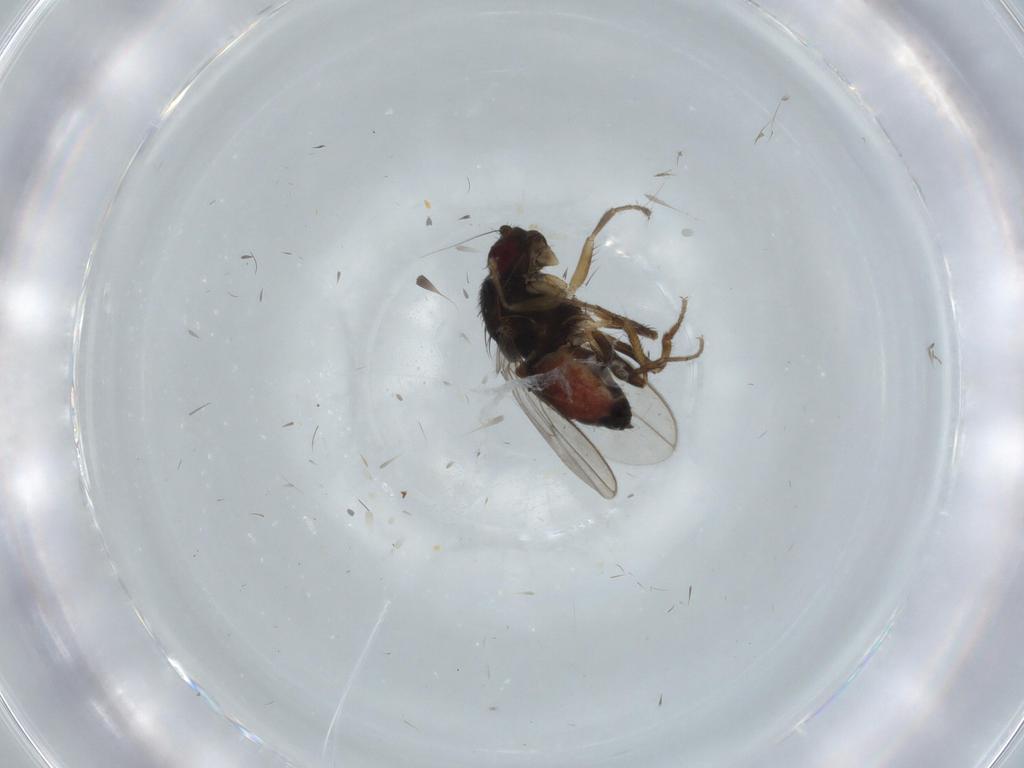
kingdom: Animalia
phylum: Arthropoda
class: Insecta
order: Diptera
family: Sphaeroceridae
